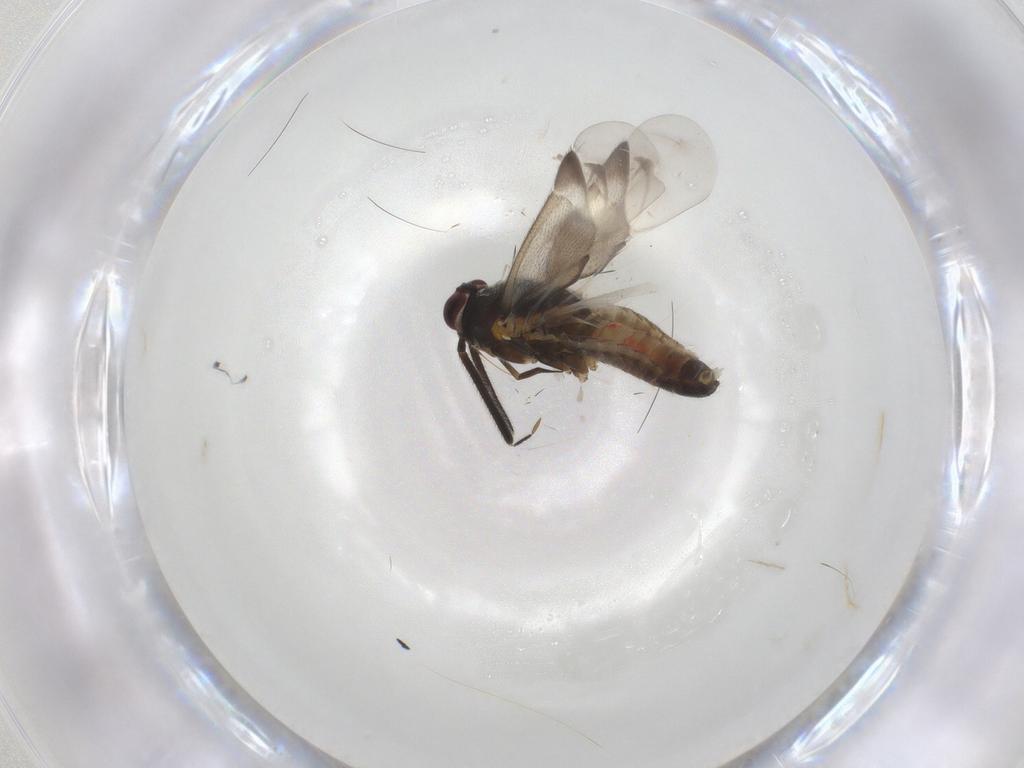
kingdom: Animalia
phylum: Arthropoda
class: Insecta
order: Hemiptera
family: Miridae
